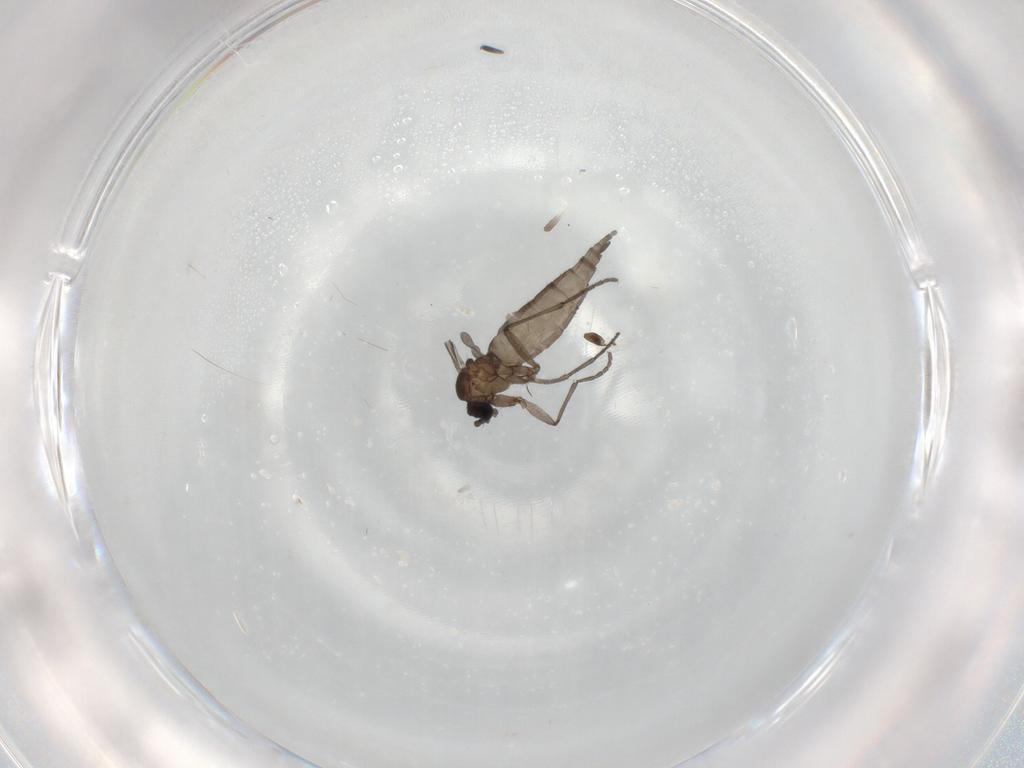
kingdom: Animalia
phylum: Arthropoda
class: Insecta
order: Diptera
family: Sciaridae
